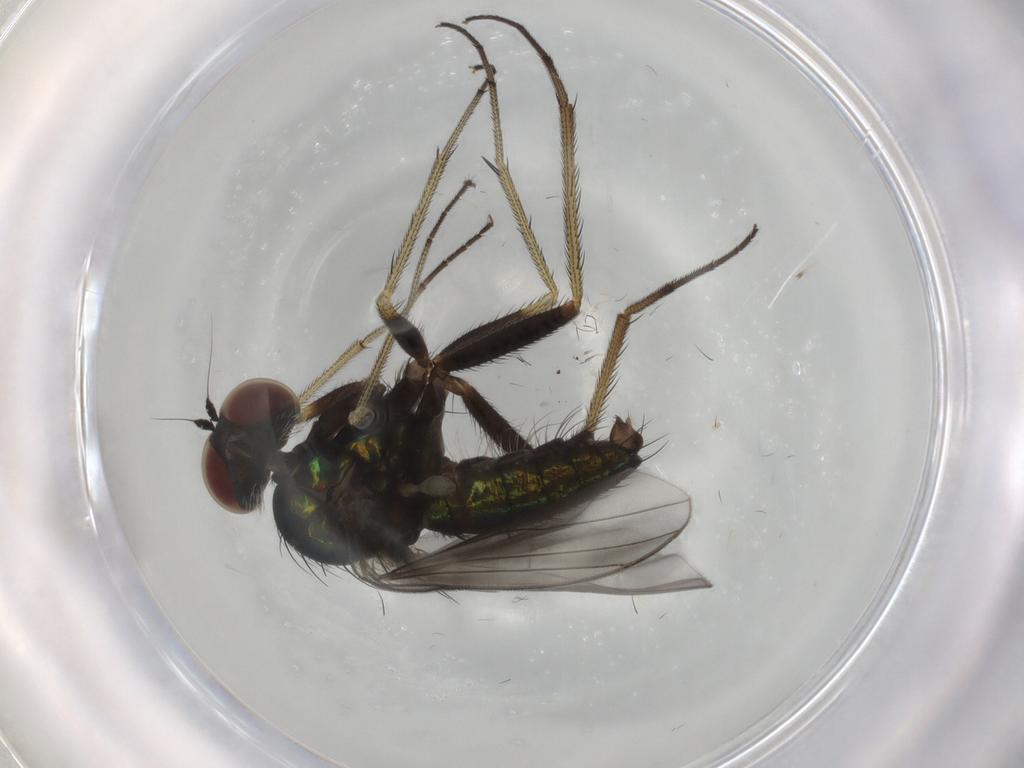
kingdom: Animalia
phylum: Arthropoda
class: Insecta
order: Diptera
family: Dolichopodidae
